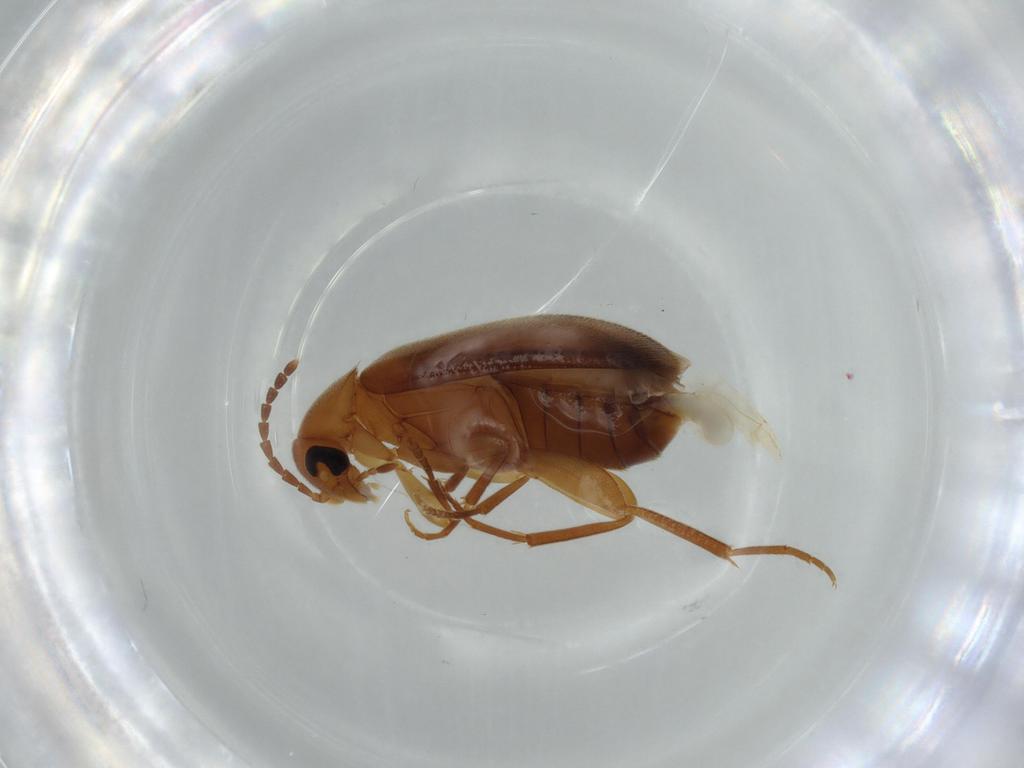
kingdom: Animalia
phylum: Arthropoda
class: Insecta
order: Coleoptera
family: Scraptiidae
